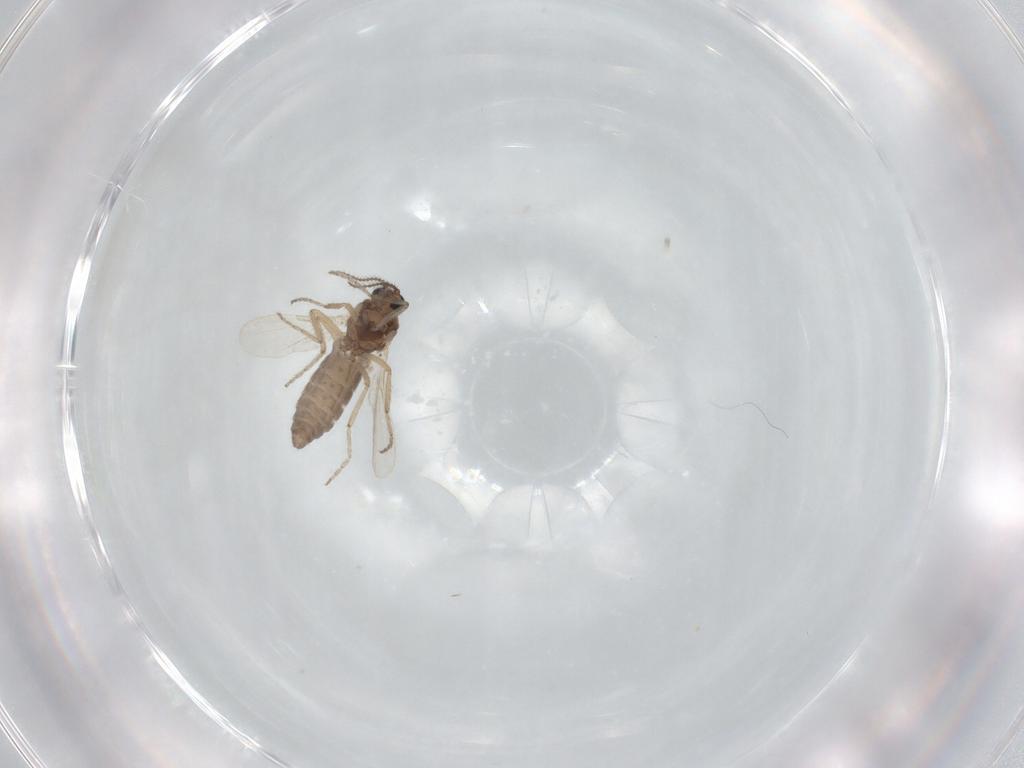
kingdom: Animalia
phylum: Arthropoda
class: Insecta
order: Diptera
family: Ceratopogonidae
